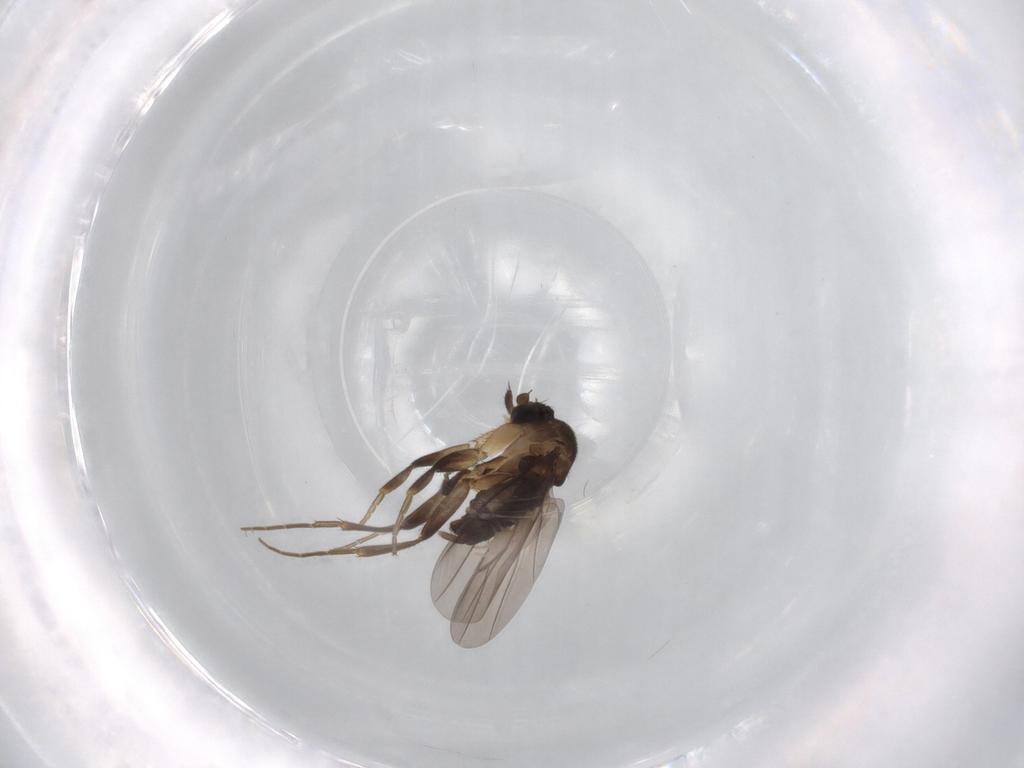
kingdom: Animalia
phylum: Arthropoda
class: Insecta
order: Diptera
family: Phoridae
